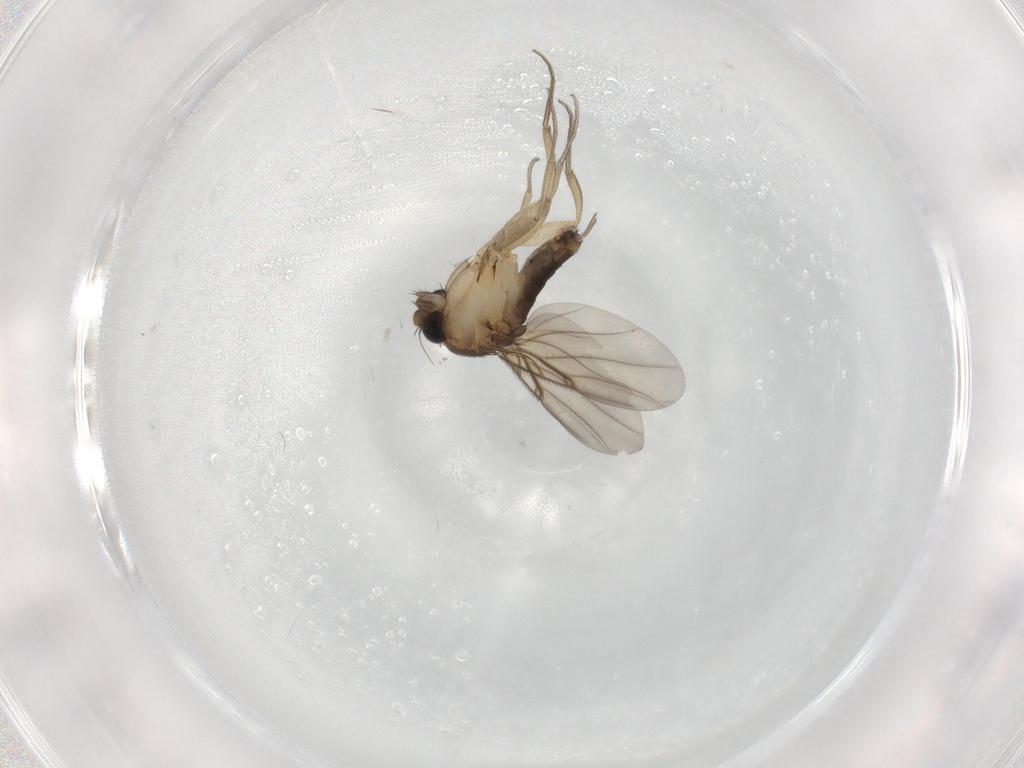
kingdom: Animalia
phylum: Arthropoda
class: Insecta
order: Diptera
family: Phoridae
